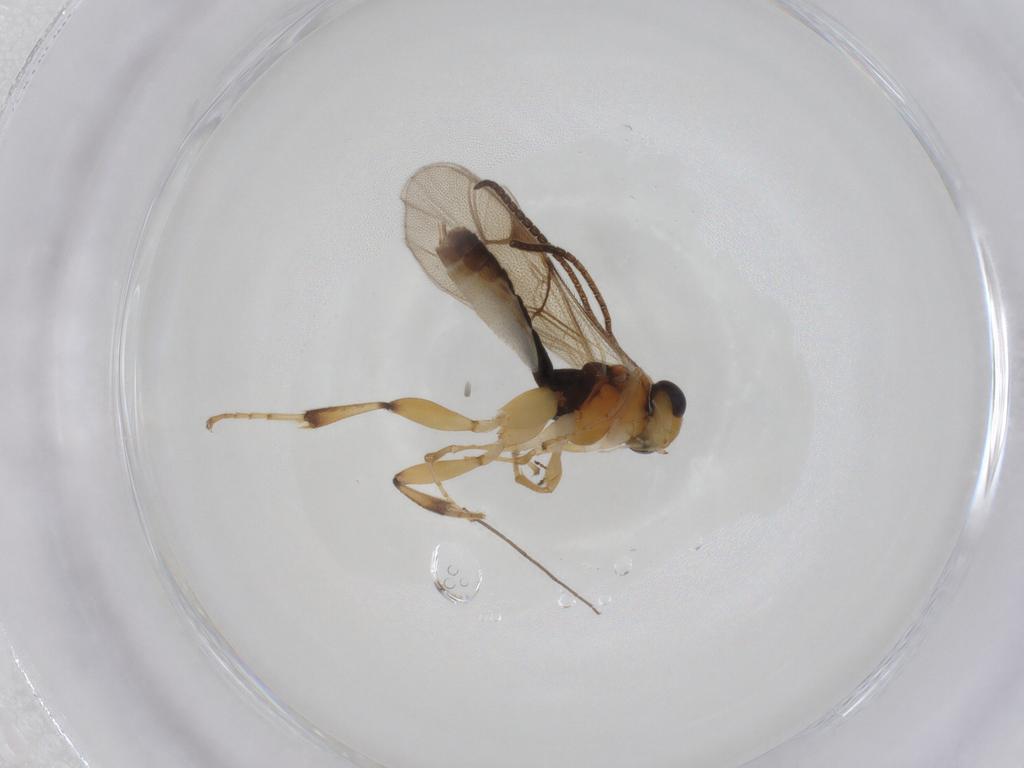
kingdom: Animalia
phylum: Arthropoda
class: Insecta
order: Hymenoptera
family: Ichneumonidae
